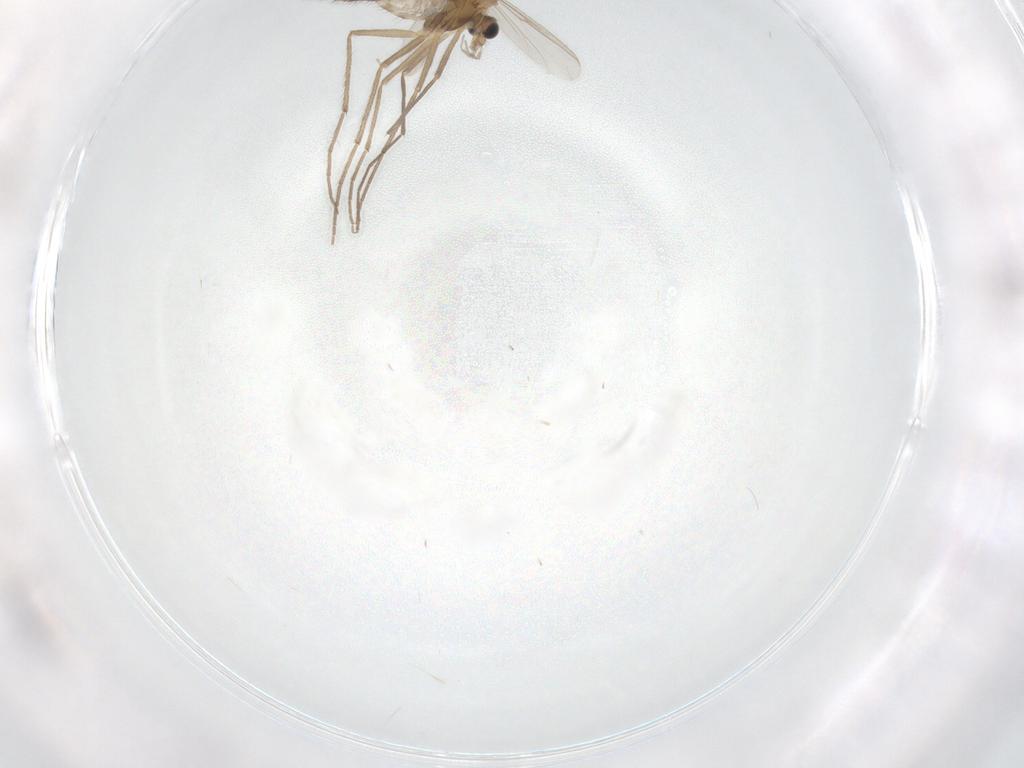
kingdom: Animalia
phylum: Arthropoda
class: Insecta
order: Diptera
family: Chironomidae
